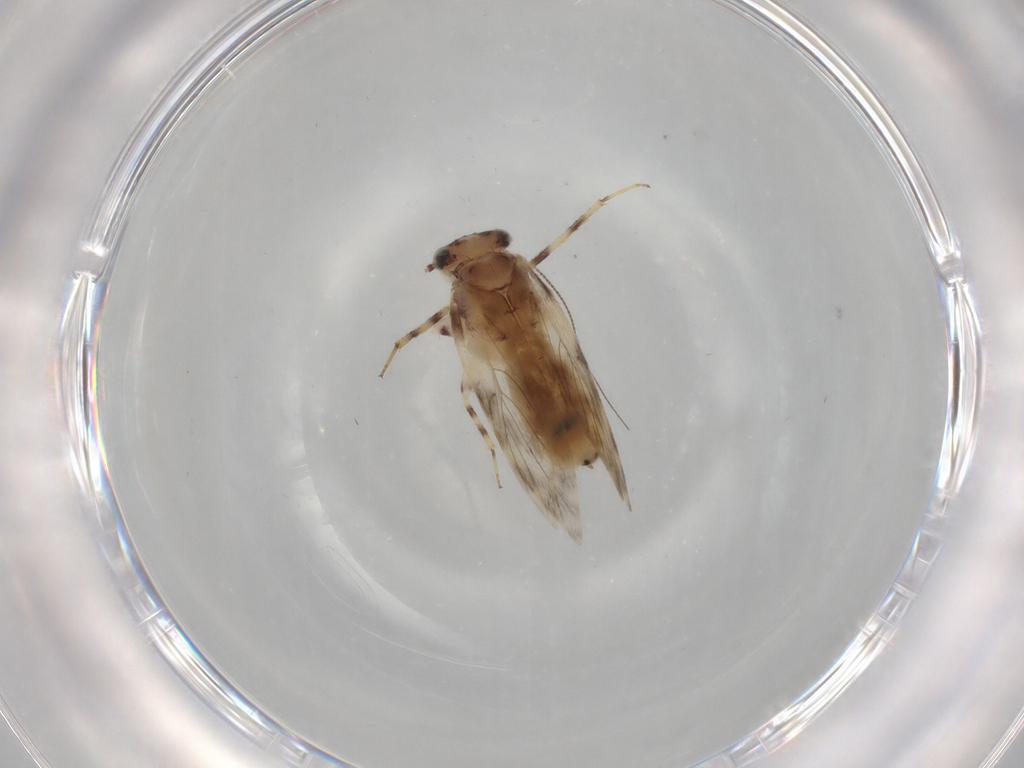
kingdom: Animalia
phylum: Arthropoda
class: Insecta
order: Psocodea
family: Lepidopsocidae
